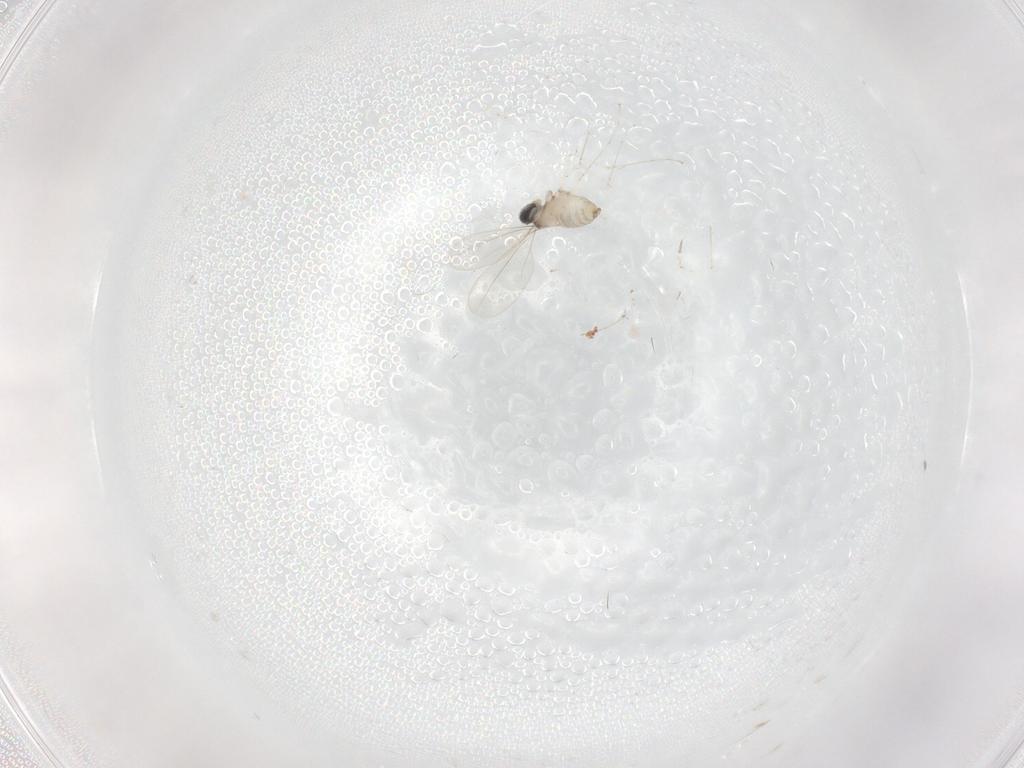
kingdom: Animalia
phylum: Arthropoda
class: Insecta
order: Diptera
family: Cecidomyiidae
